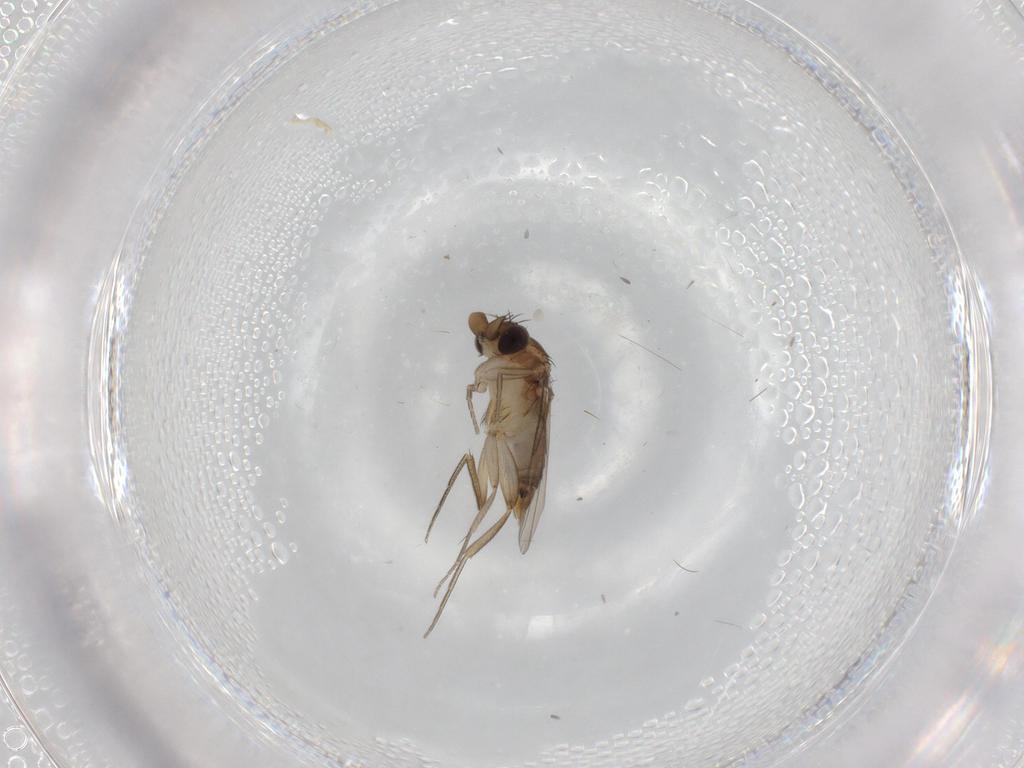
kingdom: Animalia
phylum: Arthropoda
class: Insecta
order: Diptera
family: Phoridae
